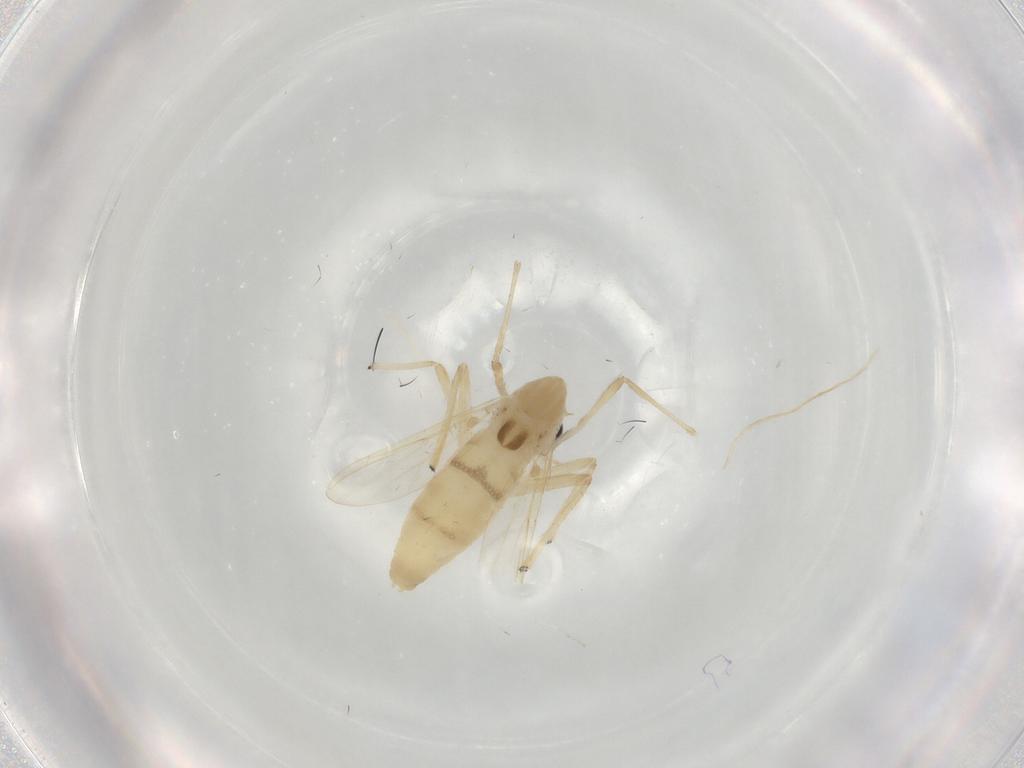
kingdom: Animalia
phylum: Arthropoda
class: Insecta
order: Diptera
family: Chironomidae
